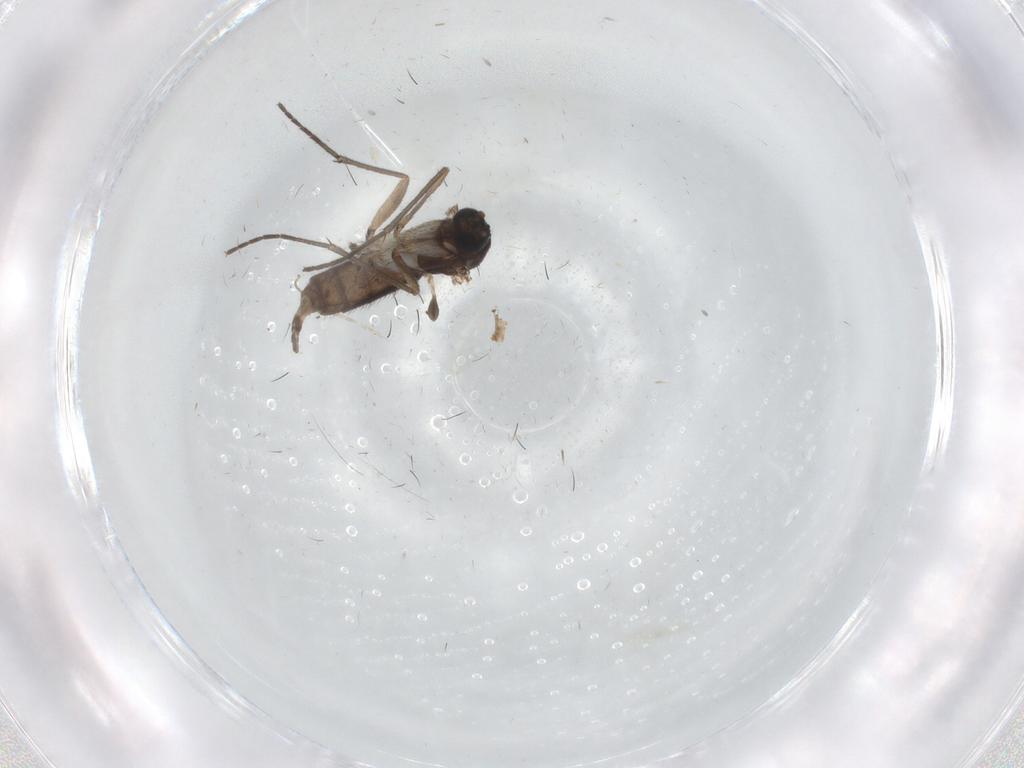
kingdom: Animalia
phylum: Arthropoda
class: Insecta
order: Diptera
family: Sciaridae
